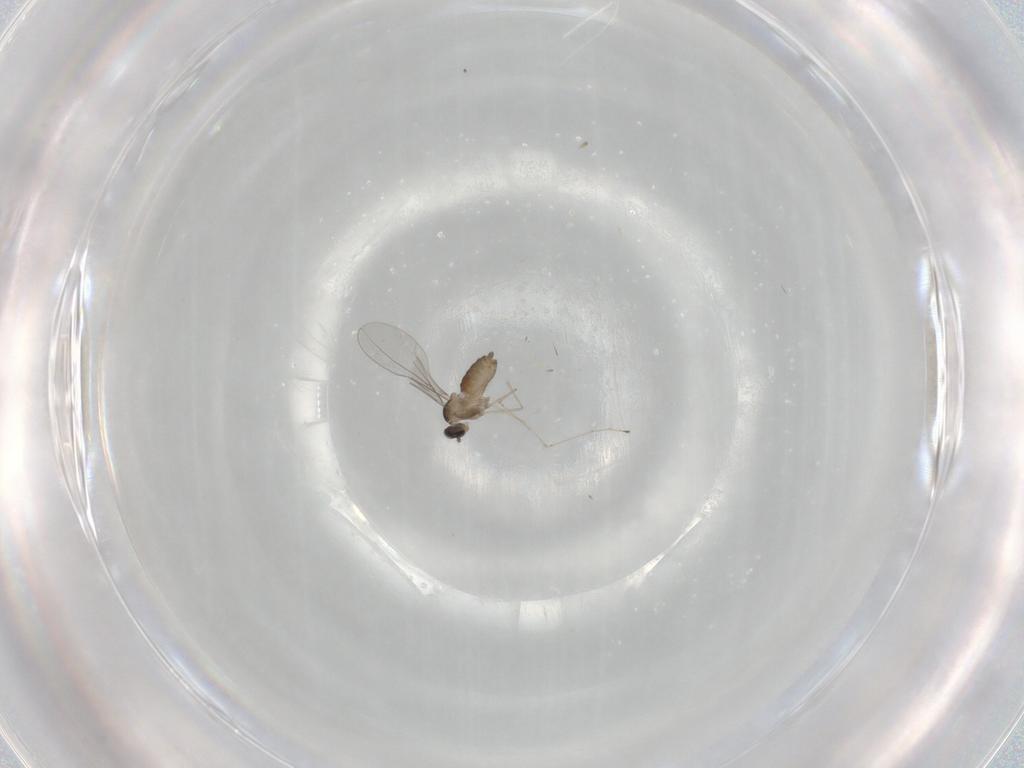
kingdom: Animalia
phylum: Arthropoda
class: Insecta
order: Diptera
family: Cecidomyiidae
